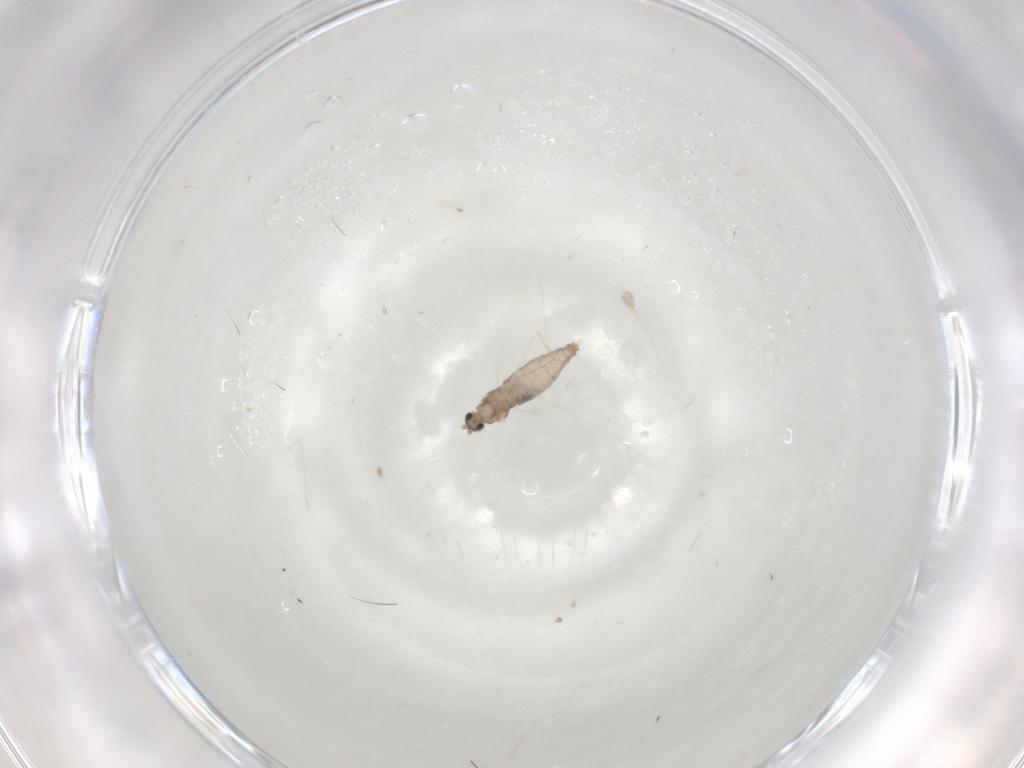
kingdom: Animalia
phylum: Arthropoda
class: Insecta
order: Diptera
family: Cecidomyiidae
